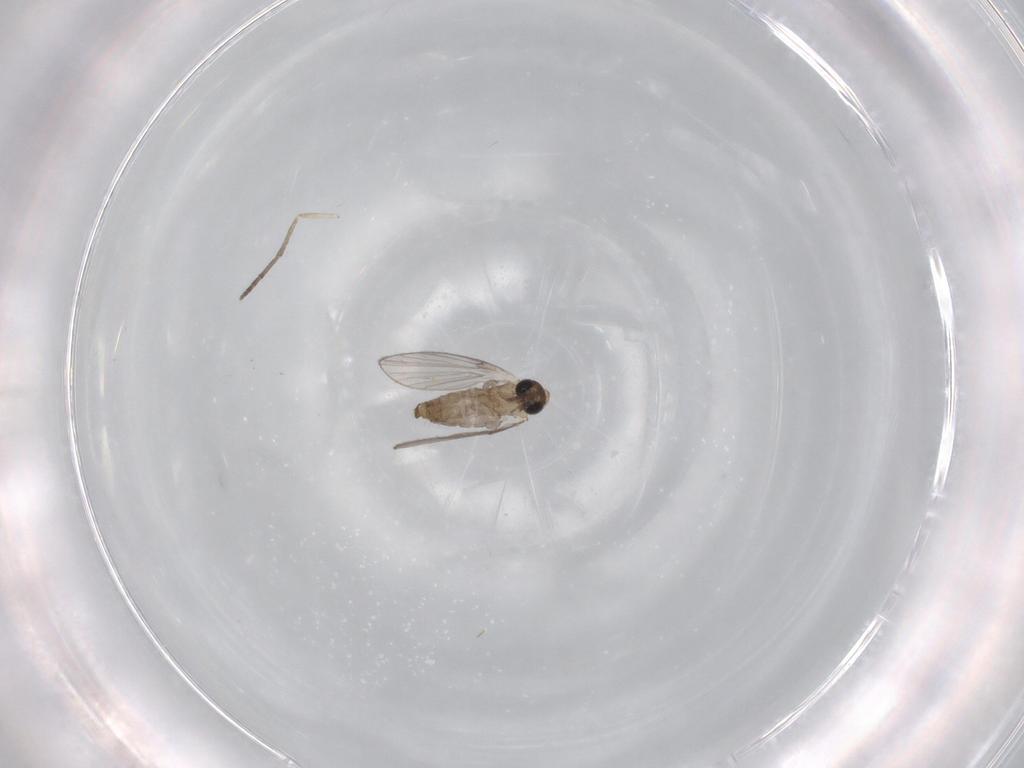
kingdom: Animalia
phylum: Arthropoda
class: Insecta
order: Diptera
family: Psychodidae
